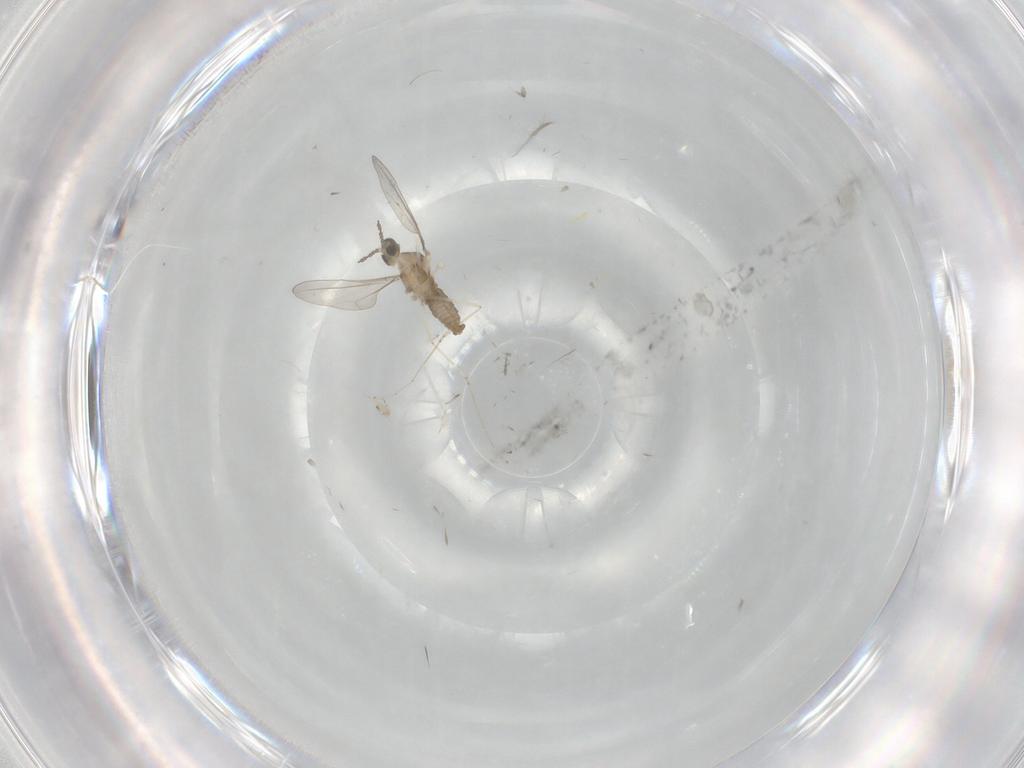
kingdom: Animalia
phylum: Arthropoda
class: Insecta
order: Diptera
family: Cecidomyiidae
